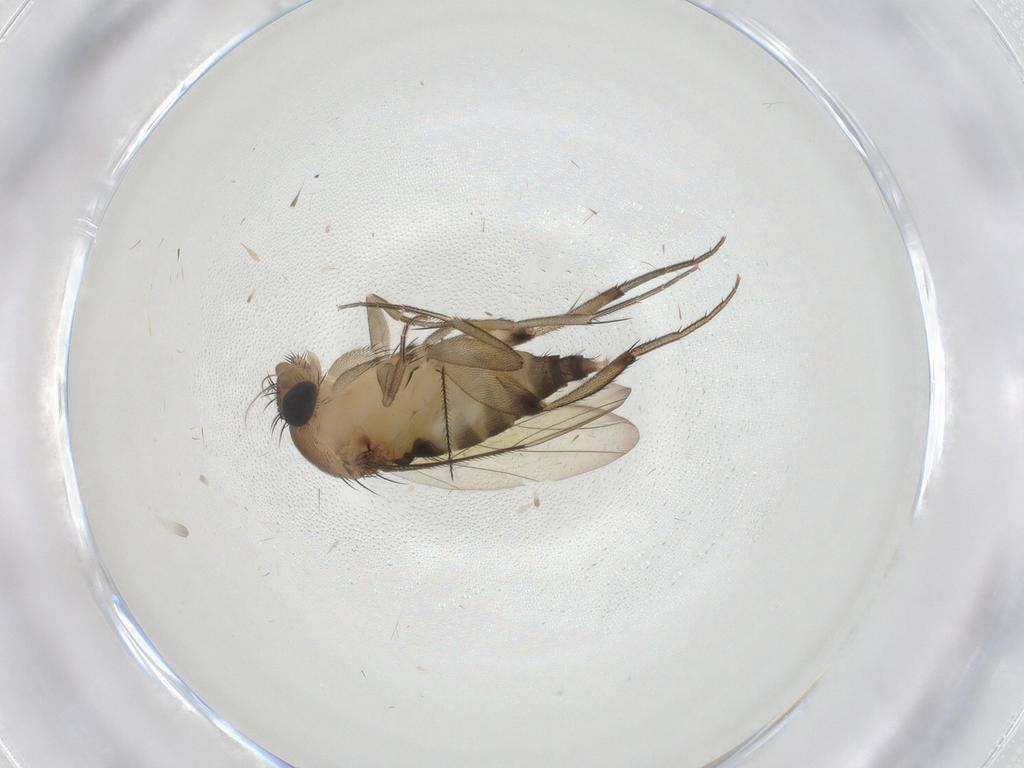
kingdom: Animalia
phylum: Arthropoda
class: Insecta
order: Diptera
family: Phoridae
